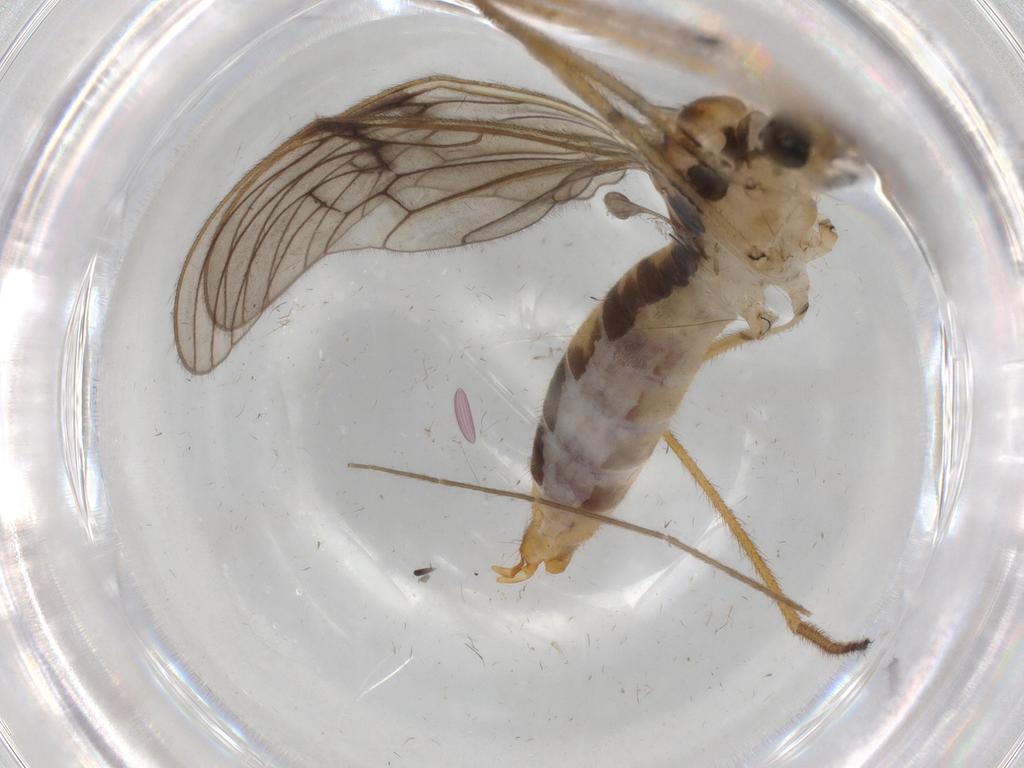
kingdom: Animalia
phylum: Arthropoda
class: Insecta
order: Diptera
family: Limoniidae
